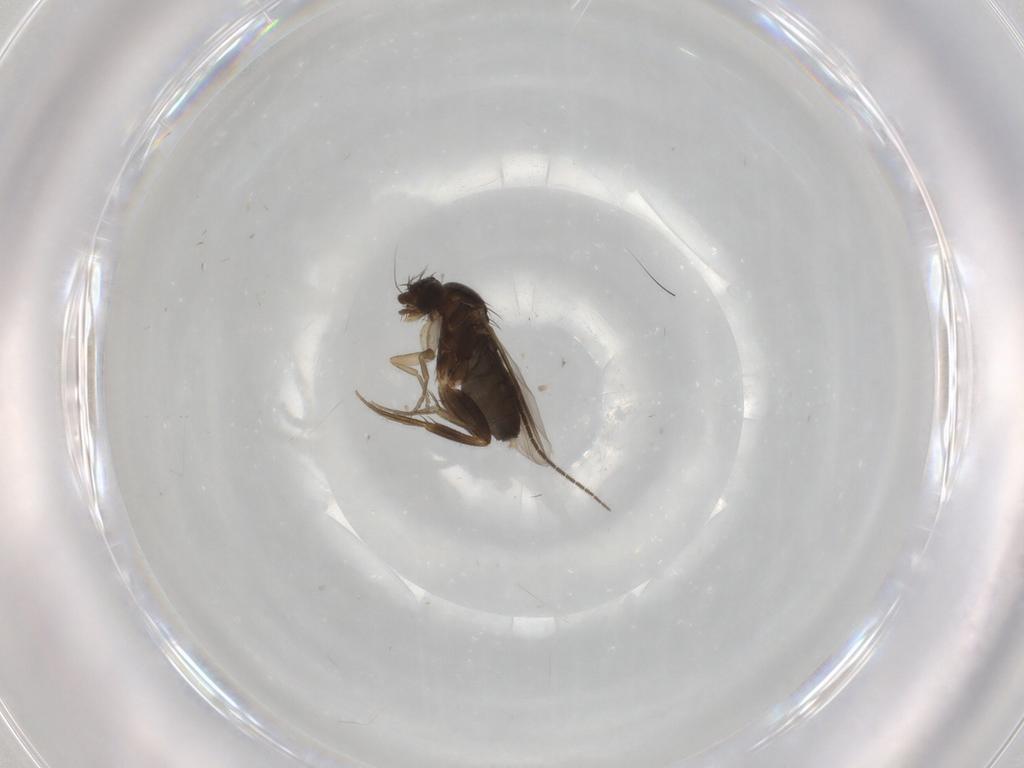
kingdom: Animalia
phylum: Arthropoda
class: Insecta
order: Diptera
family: Phoridae
